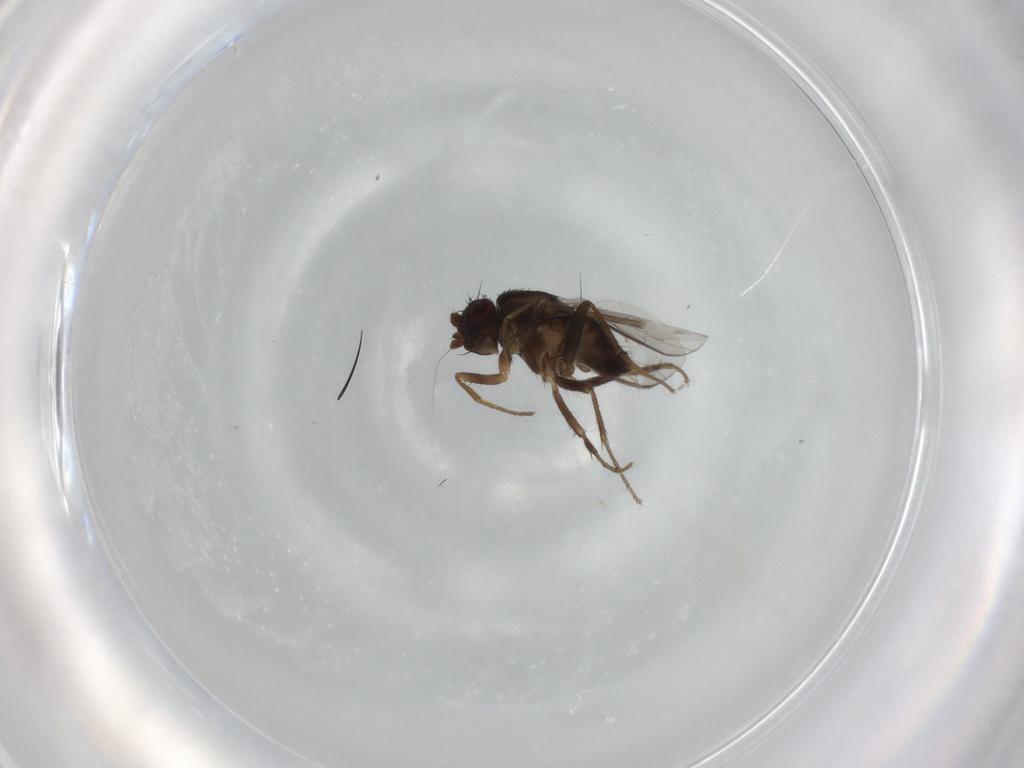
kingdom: Animalia
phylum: Arthropoda
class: Insecta
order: Diptera
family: Sphaeroceridae
